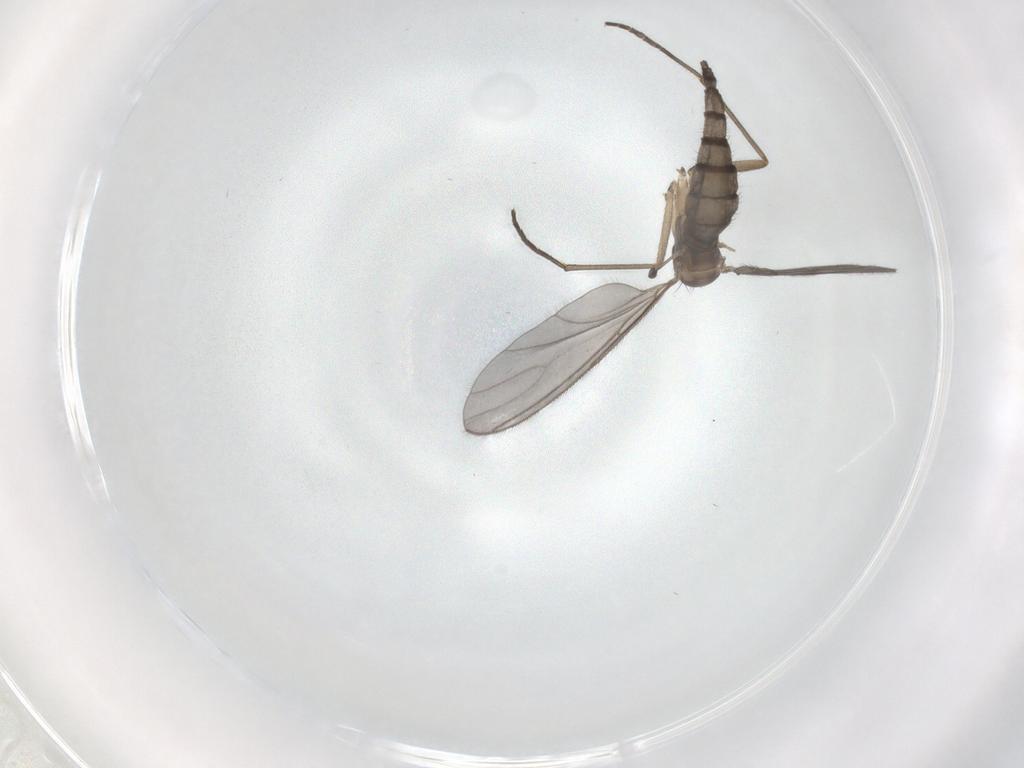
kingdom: Animalia
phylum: Arthropoda
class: Insecta
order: Diptera
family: Sciaridae
